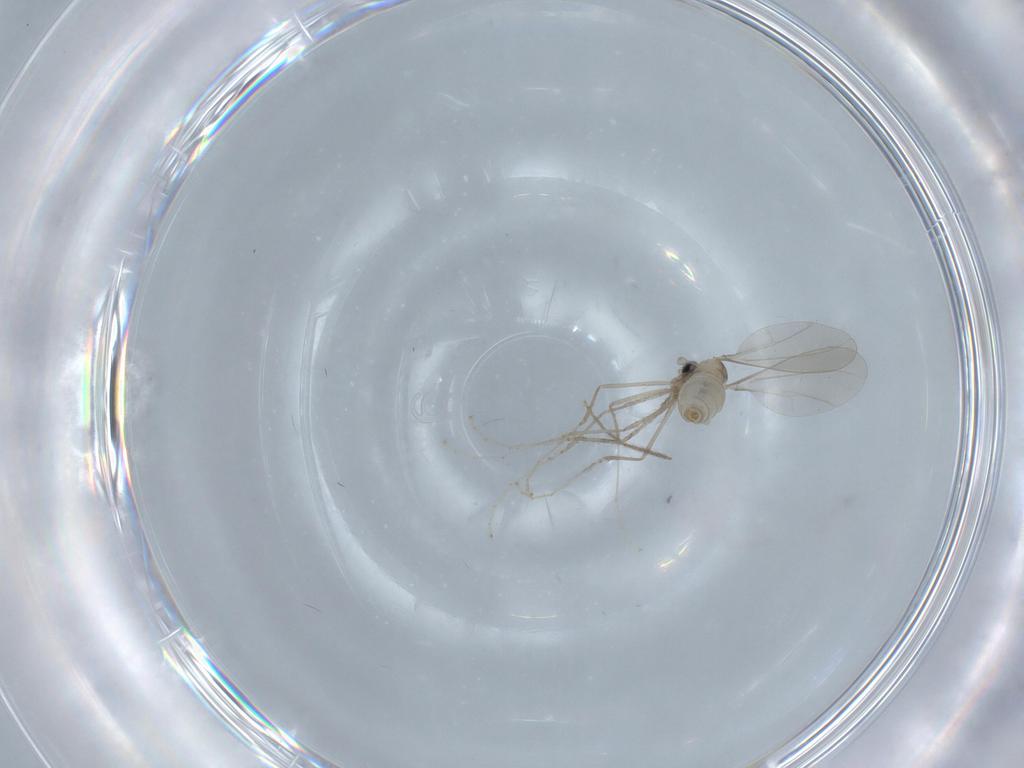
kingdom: Animalia
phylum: Arthropoda
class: Insecta
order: Diptera
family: Cecidomyiidae
